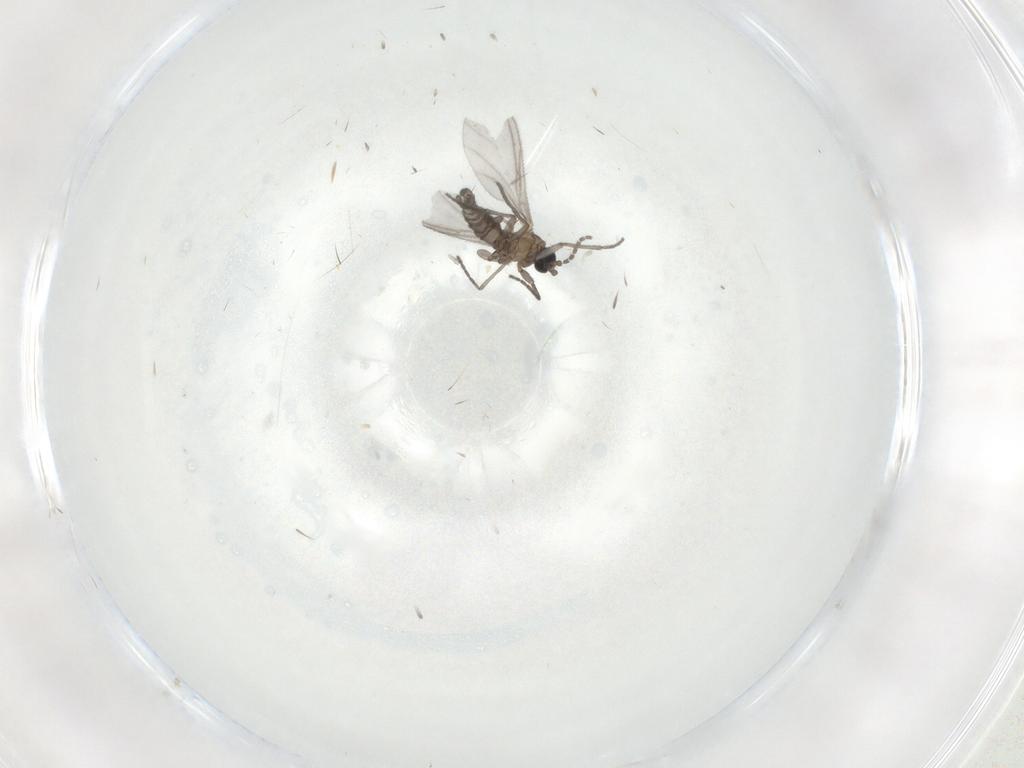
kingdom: Animalia
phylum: Arthropoda
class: Insecta
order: Diptera
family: Sciaridae
